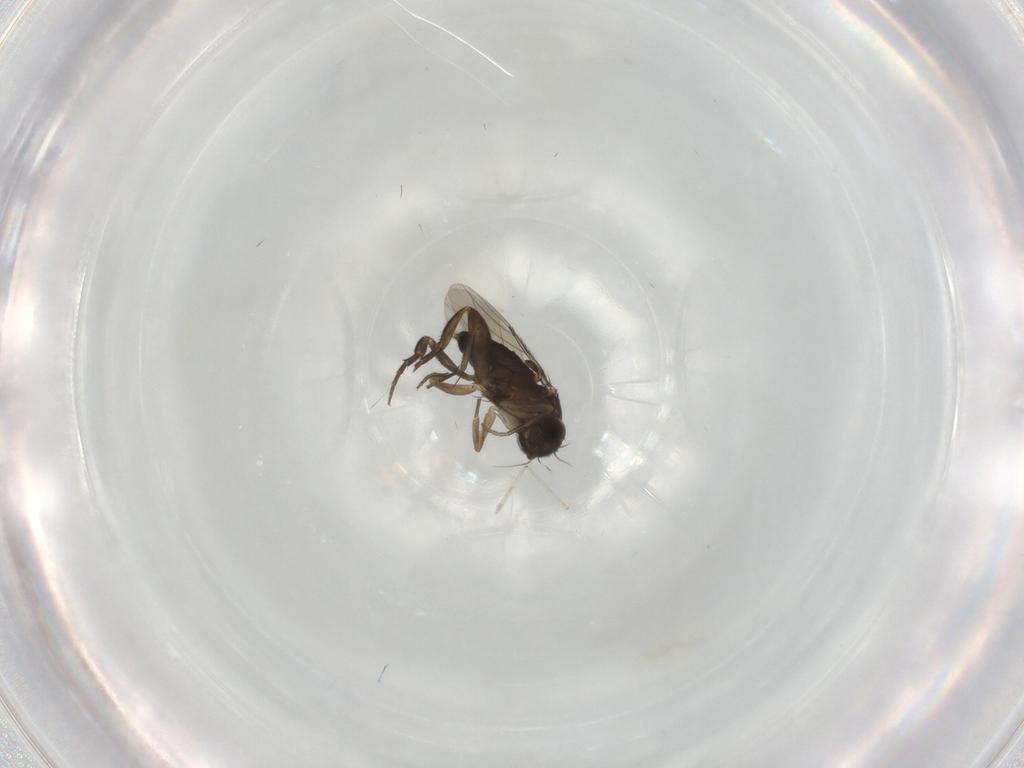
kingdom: Animalia
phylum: Arthropoda
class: Insecta
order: Diptera
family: Phoridae
